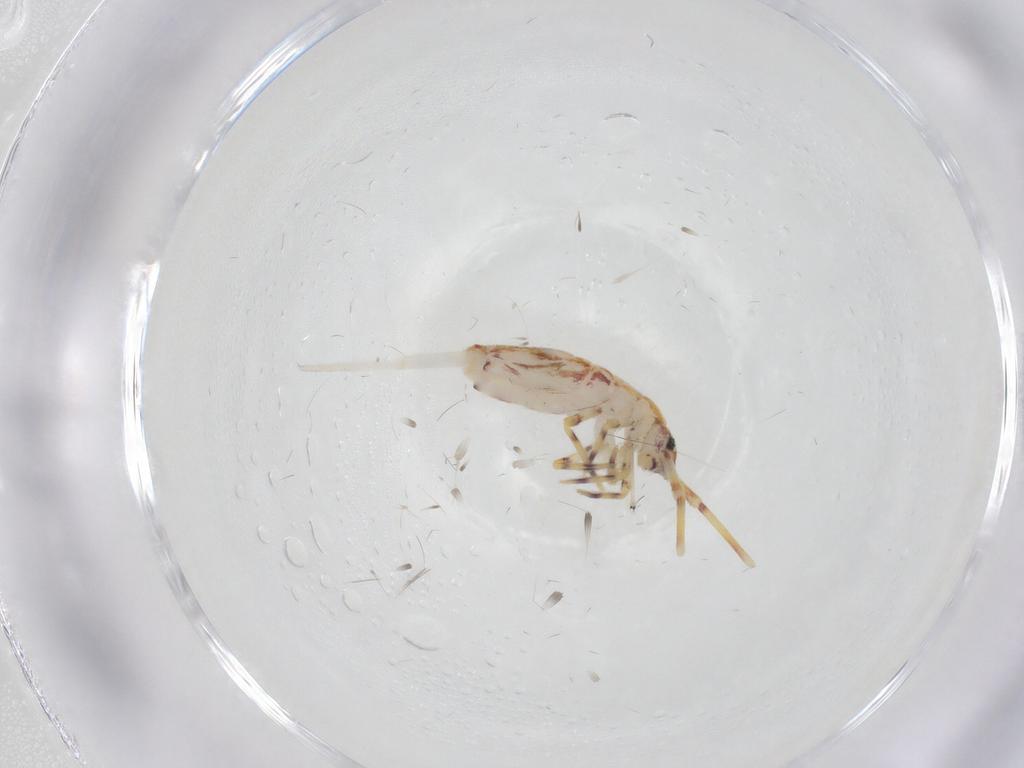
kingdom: Animalia
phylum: Arthropoda
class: Collembola
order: Entomobryomorpha
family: Entomobryidae
